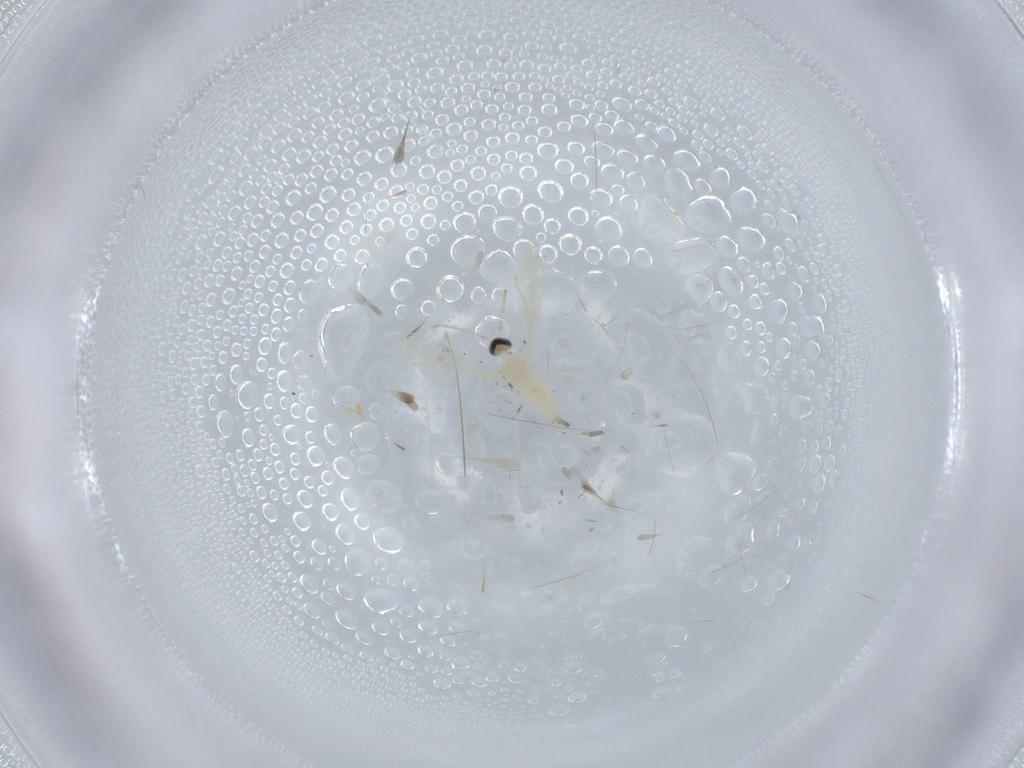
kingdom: Animalia
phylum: Arthropoda
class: Insecta
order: Diptera
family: Cecidomyiidae
